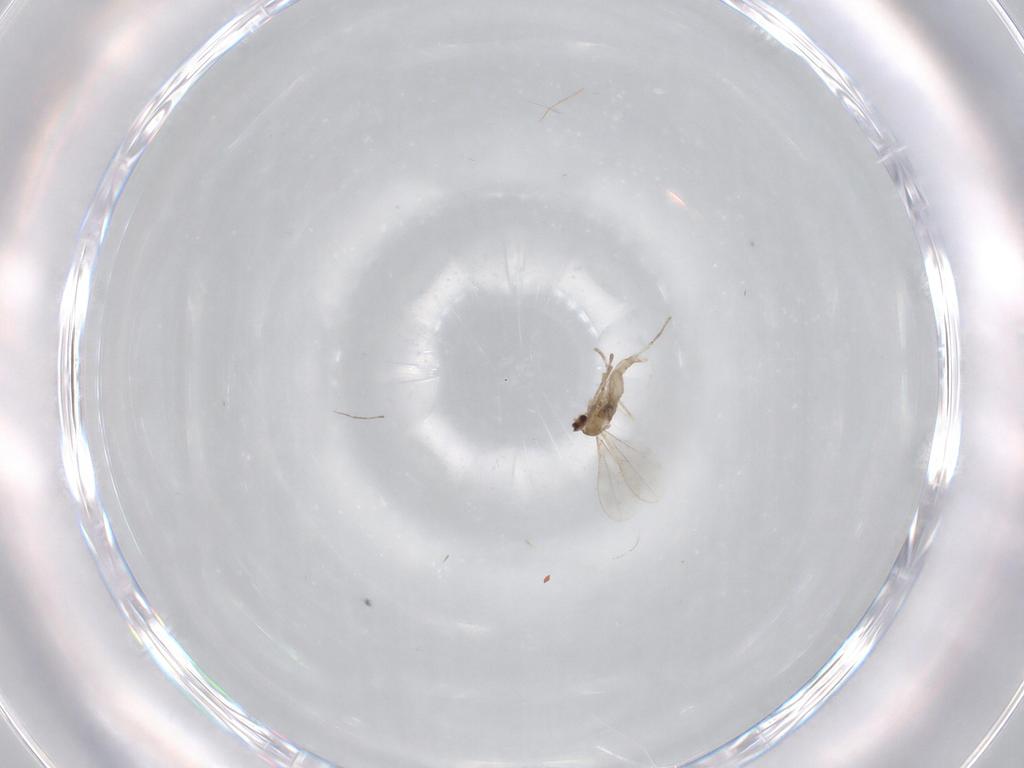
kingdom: Animalia
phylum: Arthropoda
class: Insecta
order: Diptera
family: Cecidomyiidae
